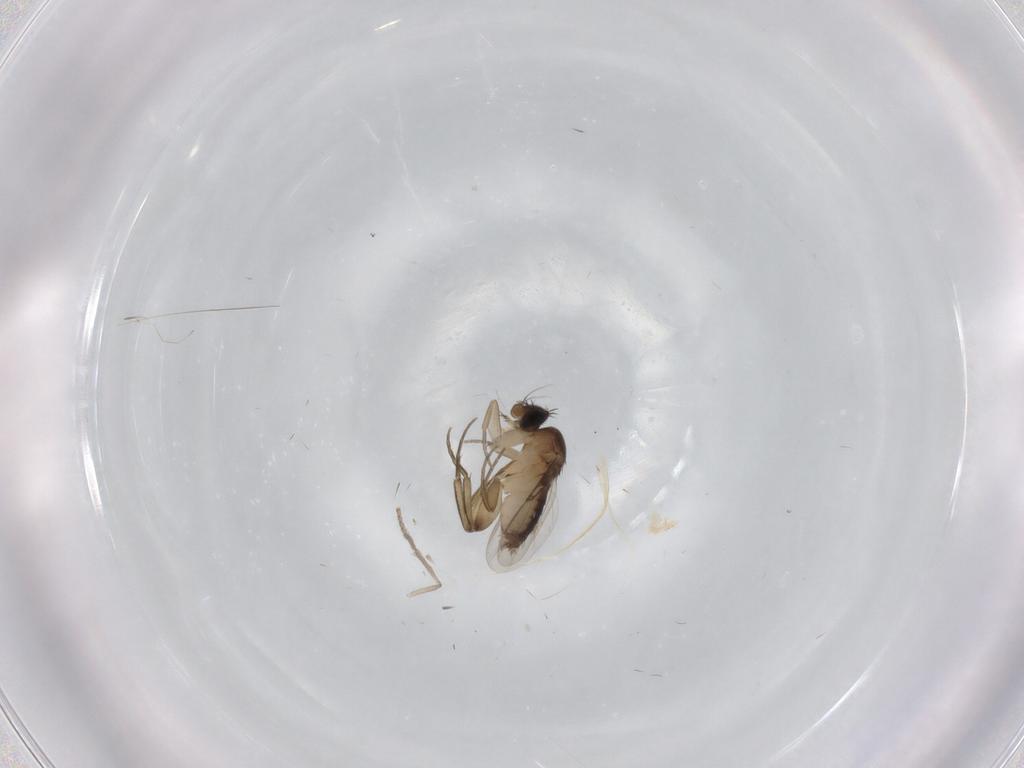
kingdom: Animalia
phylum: Arthropoda
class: Insecta
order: Diptera
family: Phoridae
